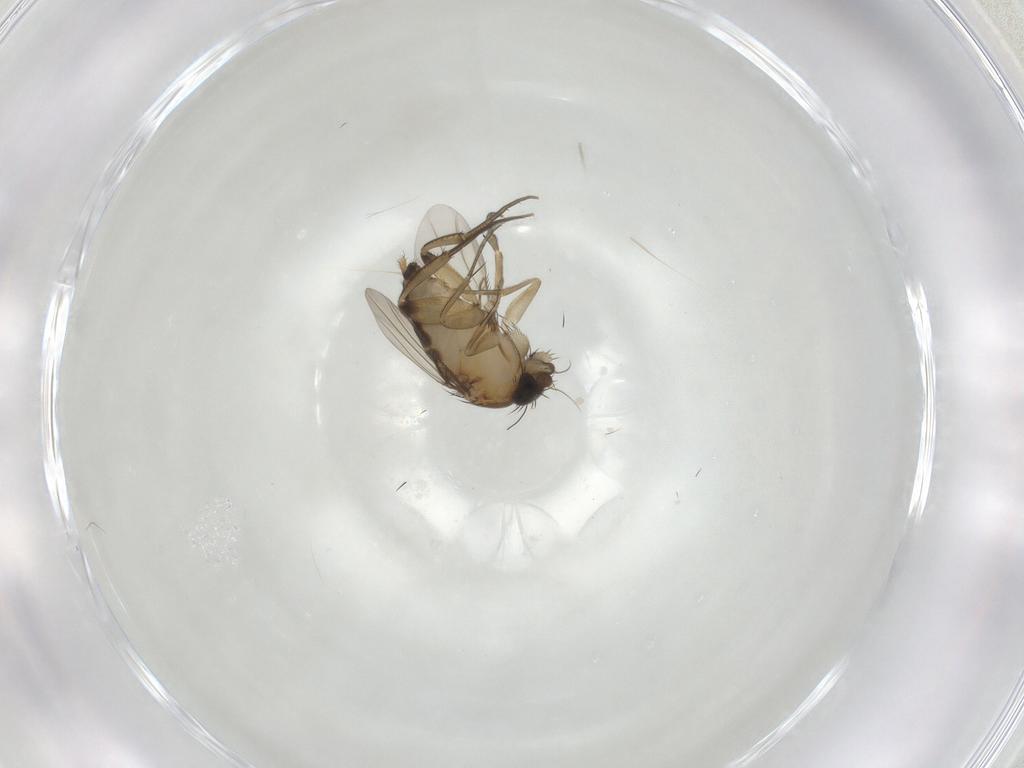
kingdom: Animalia
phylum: Arthropoda
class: Insecta
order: Diptera
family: Phoridae
